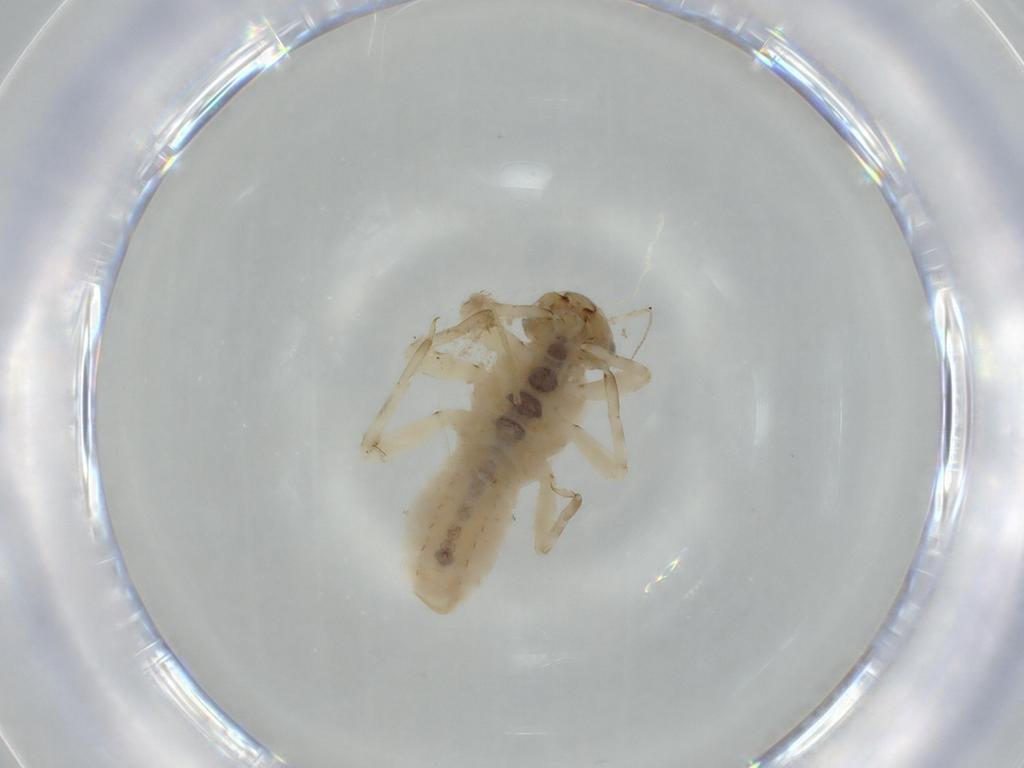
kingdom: Animalia
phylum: Arthropoda
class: Insecta
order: Ephemeroptera
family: Ephemerellidae
